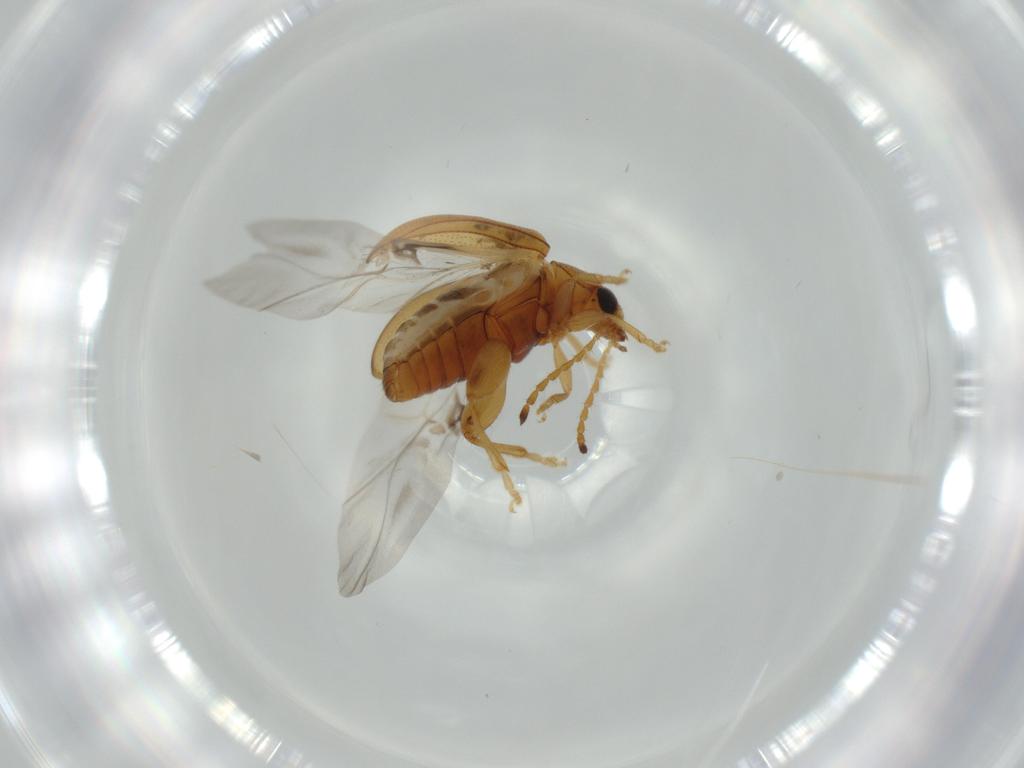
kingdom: Animalia
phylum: Arthropoda
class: Insecta
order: Coleoptera
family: Chrysomelidae
